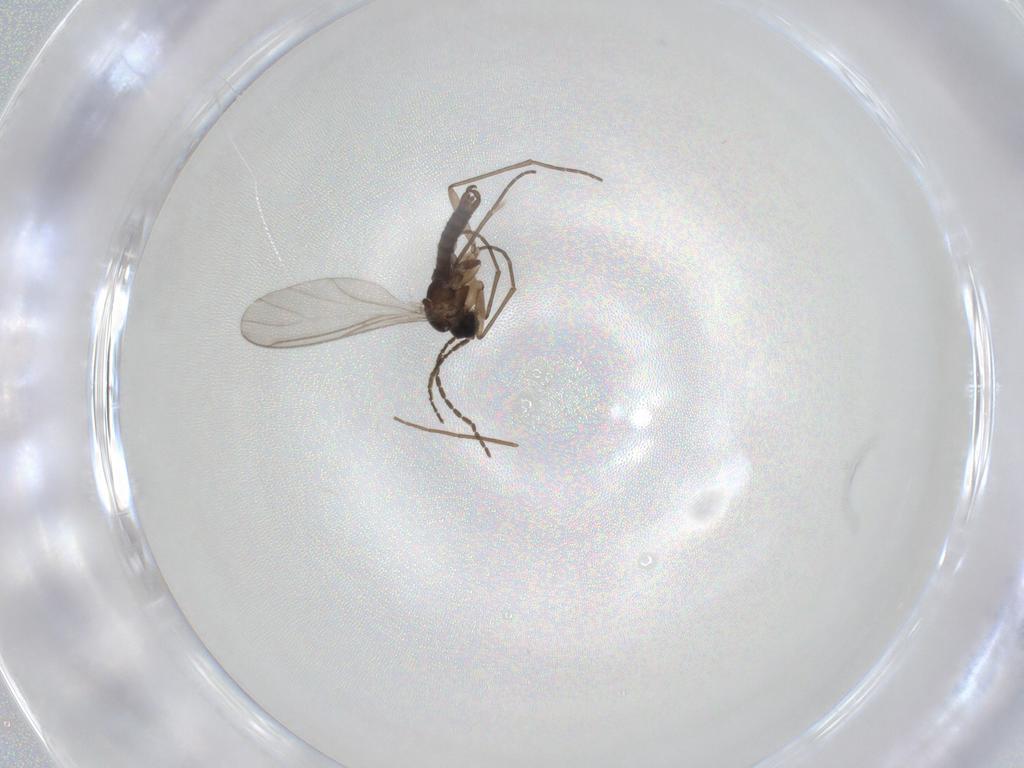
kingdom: Animalia
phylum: Arthropoda
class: Insecta
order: Diptera
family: Sciaridae
